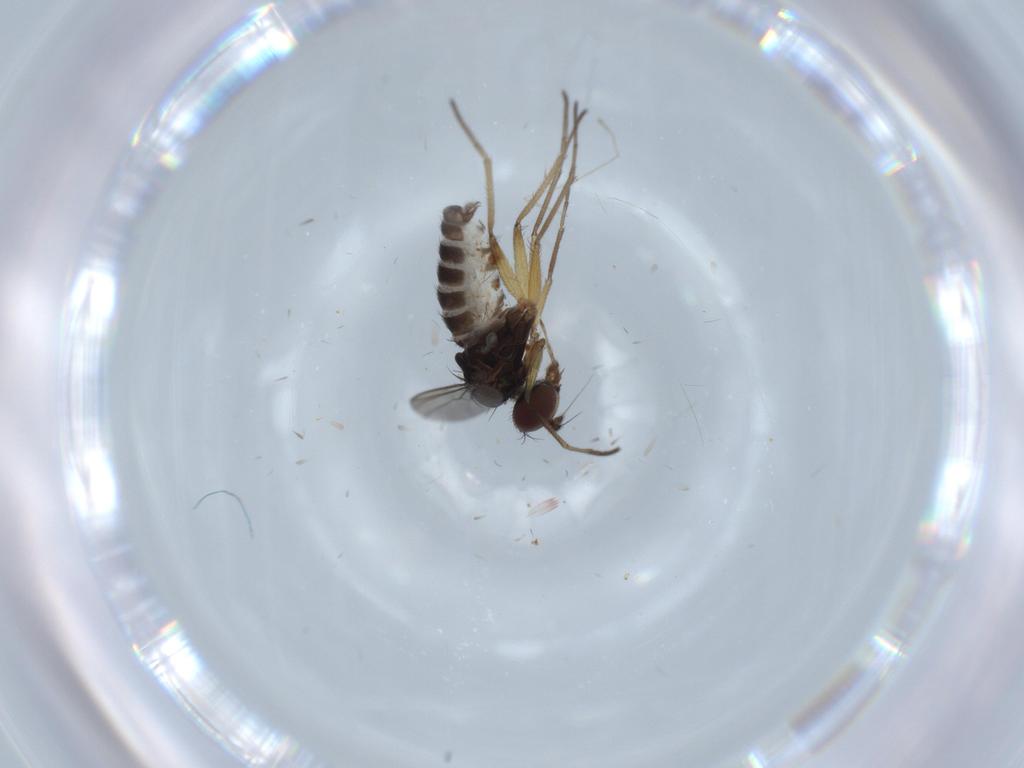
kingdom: Animalia
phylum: Arthropoda
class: Insecta
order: Diptera
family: Dolichopodidae
